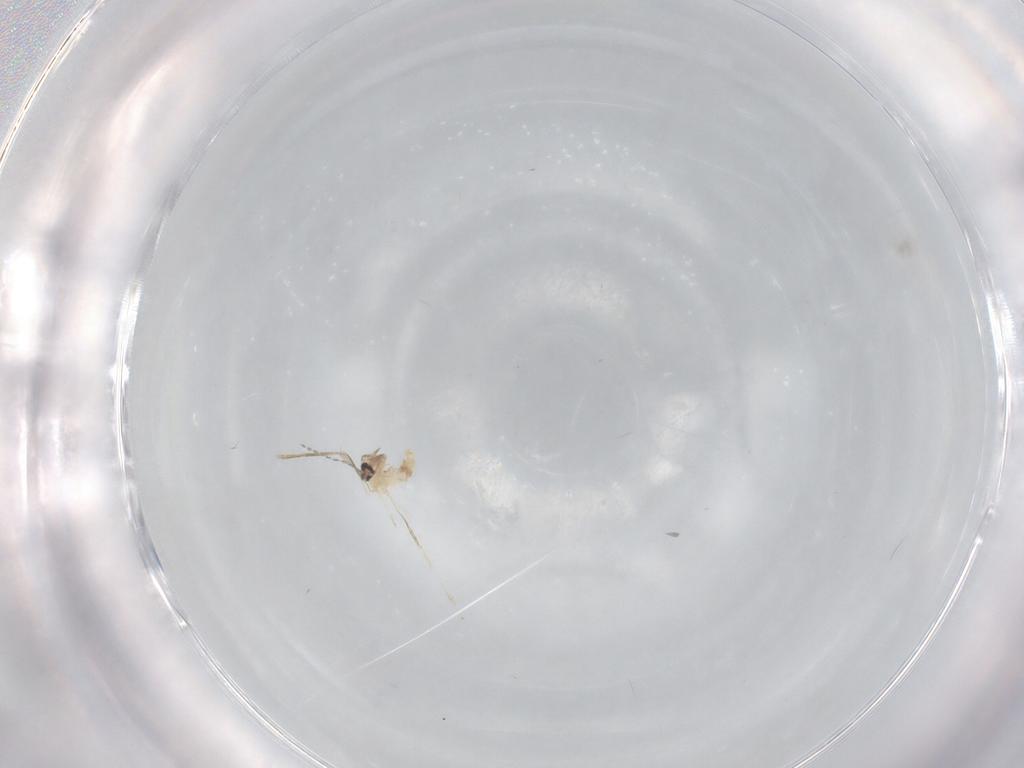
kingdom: Animalia
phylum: Arthropoda
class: Insecta
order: Diptera
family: Cecidomyiidae
